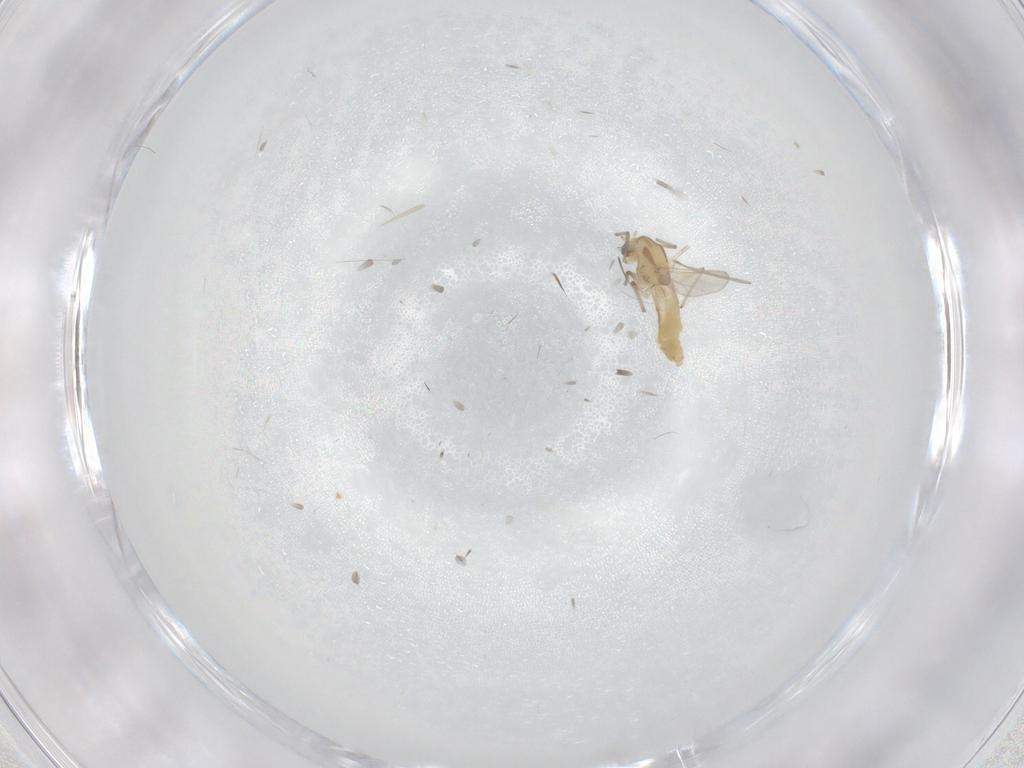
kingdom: Animalia
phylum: Arthropoda
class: Insecta
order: Diptera
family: Chironomidae
